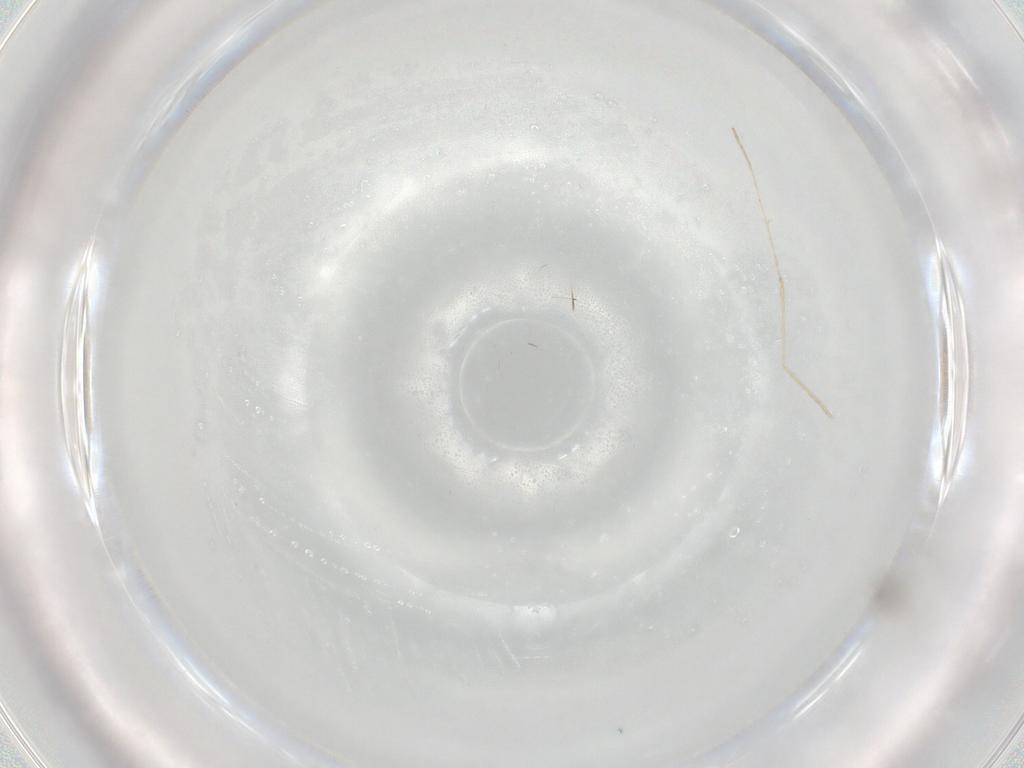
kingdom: Animalia
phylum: Arthropoda
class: Insecta
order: Diptera
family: Cecidomyiidae
